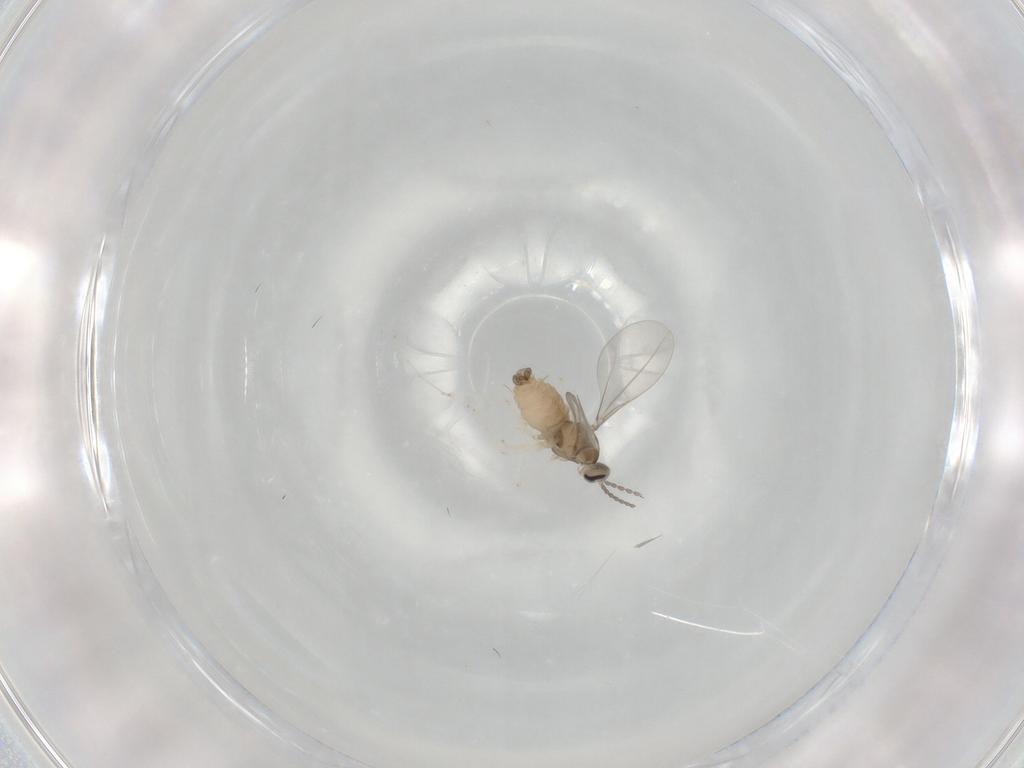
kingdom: Animalia
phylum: Arthropoda
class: Insecta
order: Diptera
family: Cecidomyiidae
